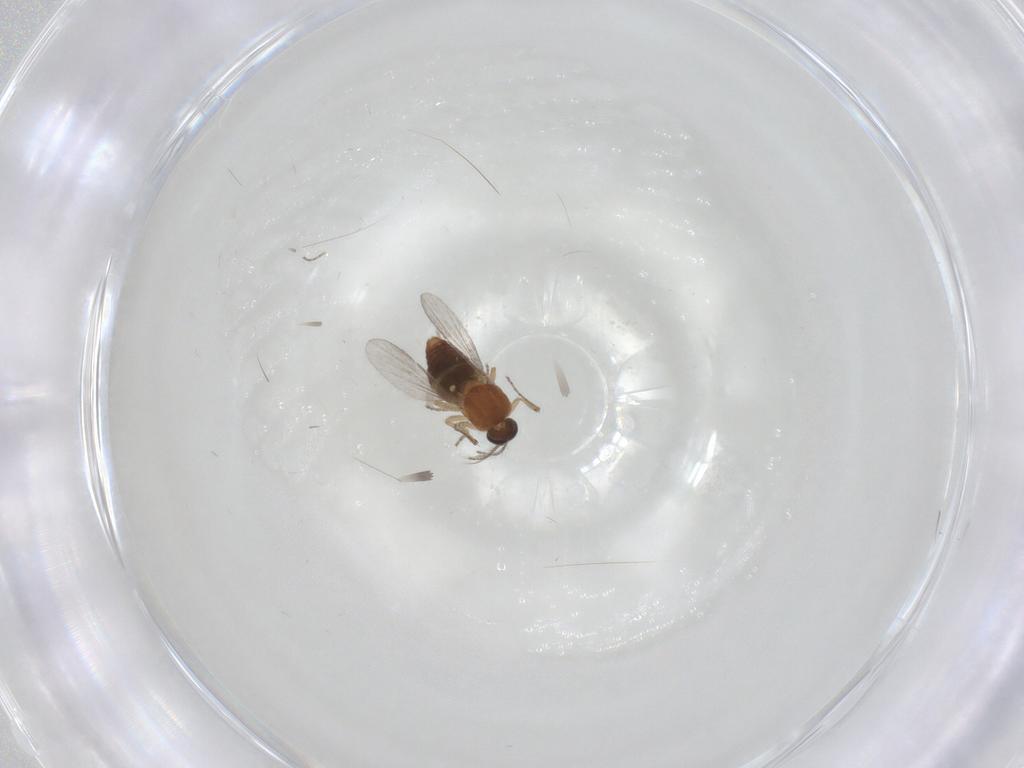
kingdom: Animalia
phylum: Arthropoda
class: Insecta
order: Diptera
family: Ceratopogonidae
